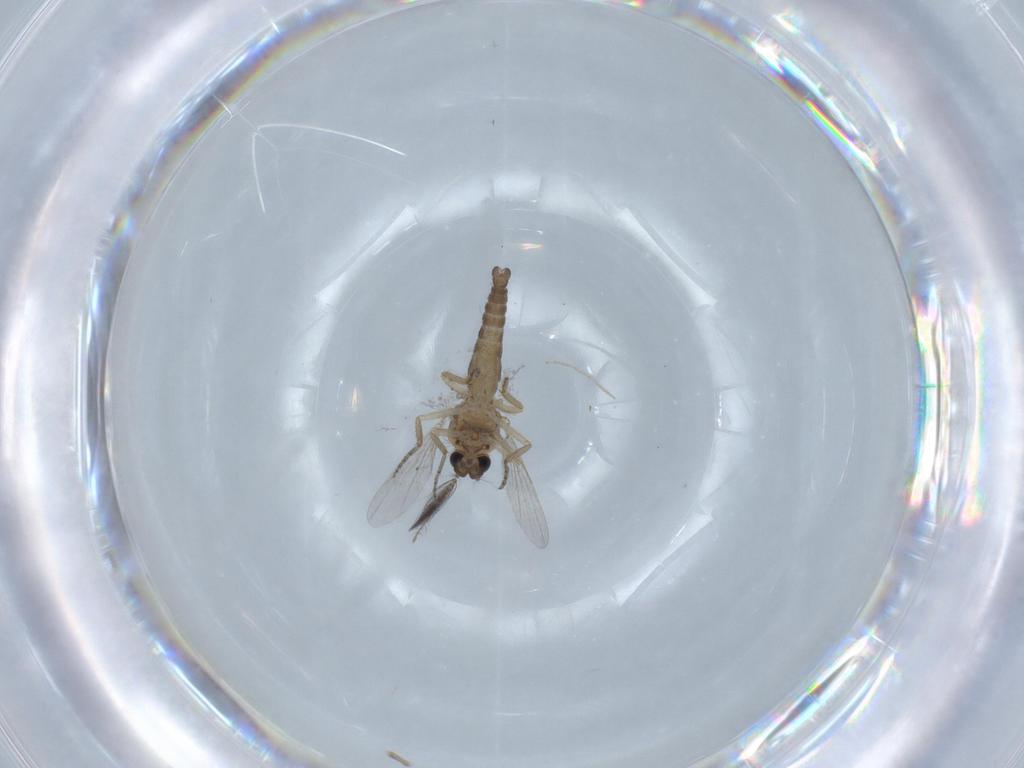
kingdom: Animalia
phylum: Arthropoda
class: Insecta
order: Diptera
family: Ceratopogonidae
